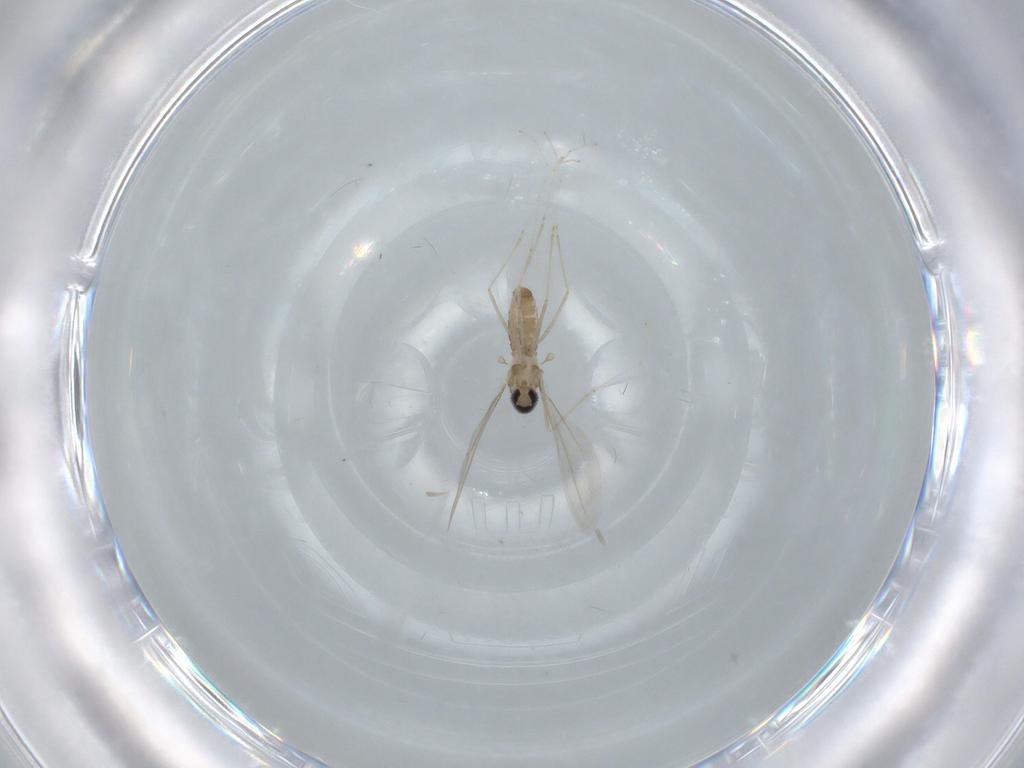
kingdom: Animalia
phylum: Arthropoda
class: Insecta
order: Diptera
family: Cecidomyiidae
